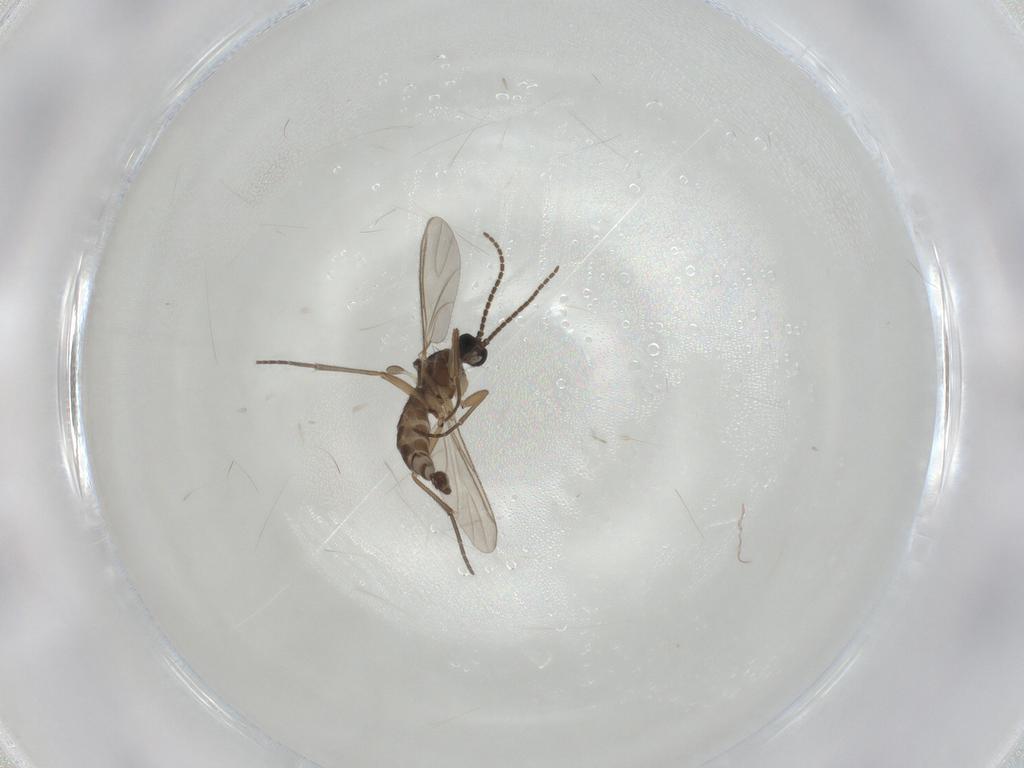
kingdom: Animalia
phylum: Arthropoda
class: Insecta
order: Diptera
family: Sciaridae
